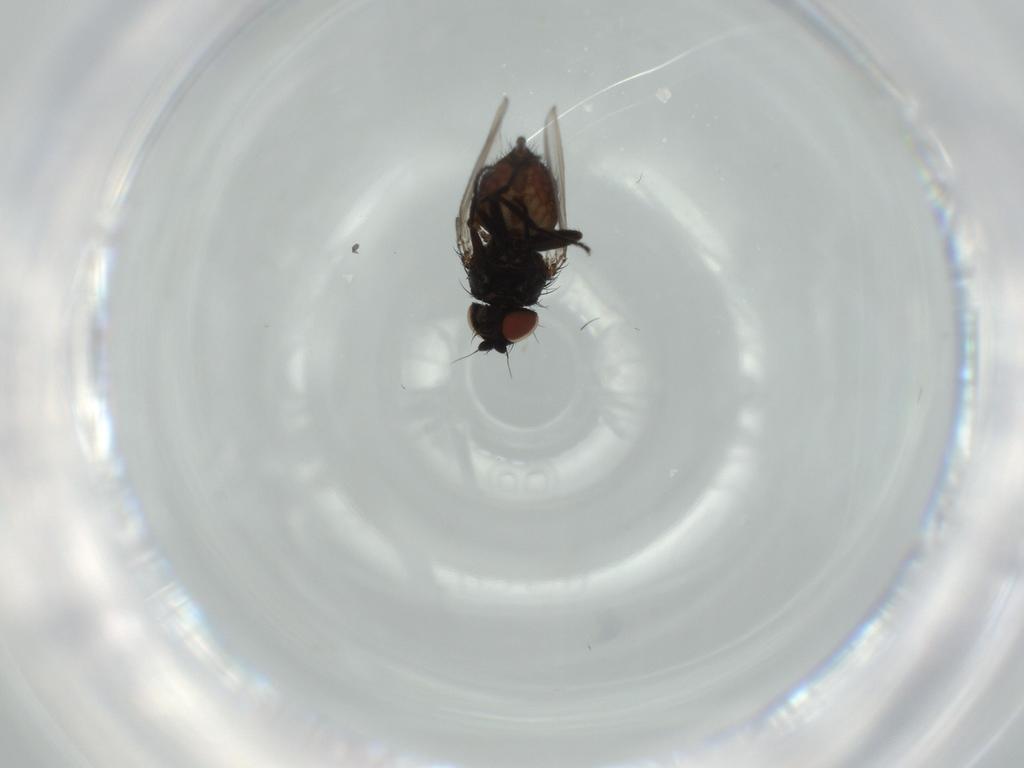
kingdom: Animalia
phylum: Arthropoda
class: Insecta
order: Diptera
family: Milichiidae
